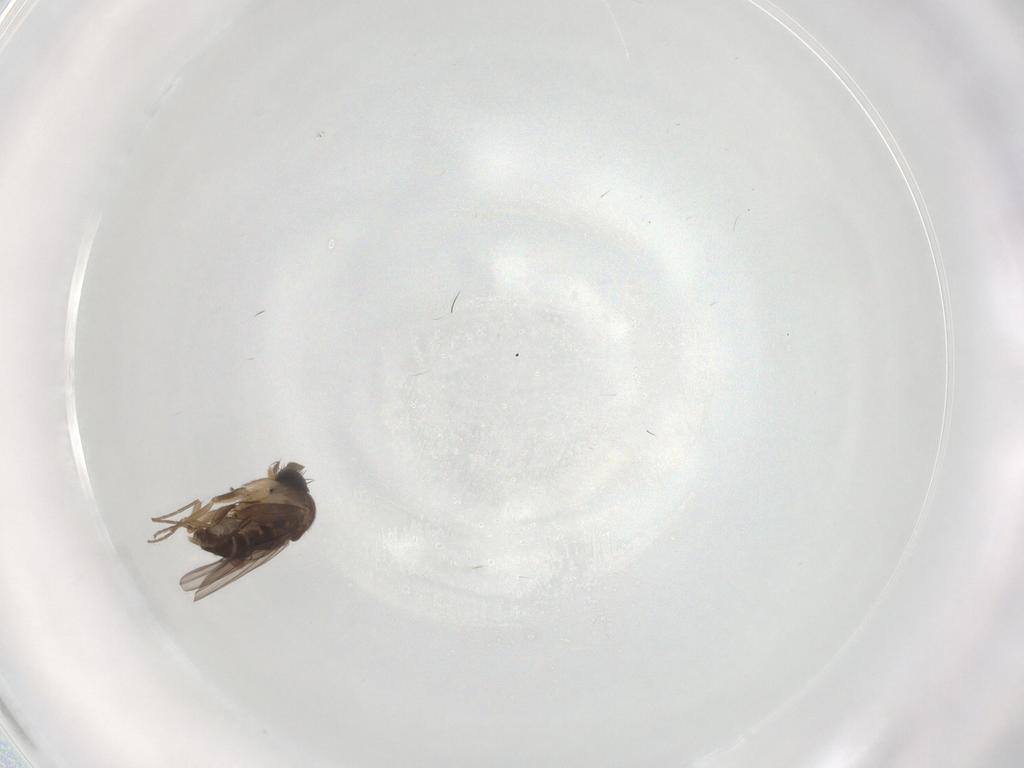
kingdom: Animalia
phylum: Arthropoda
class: Insecta
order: Diptera
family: Phoridae
